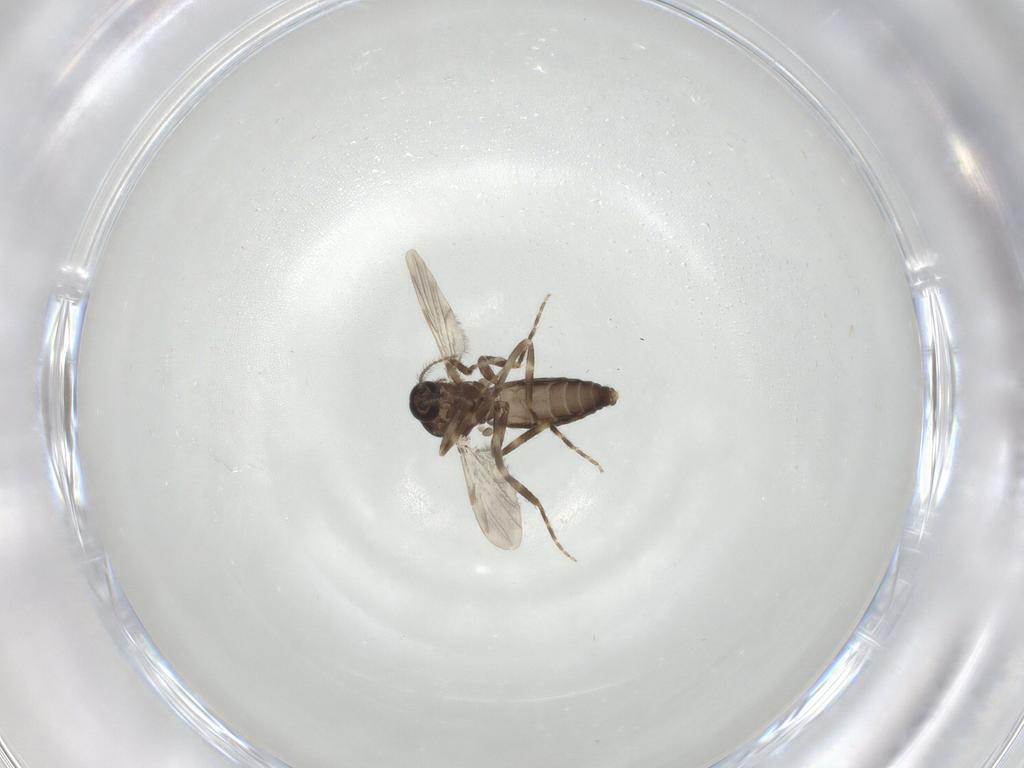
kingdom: Animalia
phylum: Arthropoda
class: Insecta
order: Diptera
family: Ceratopogonidae
